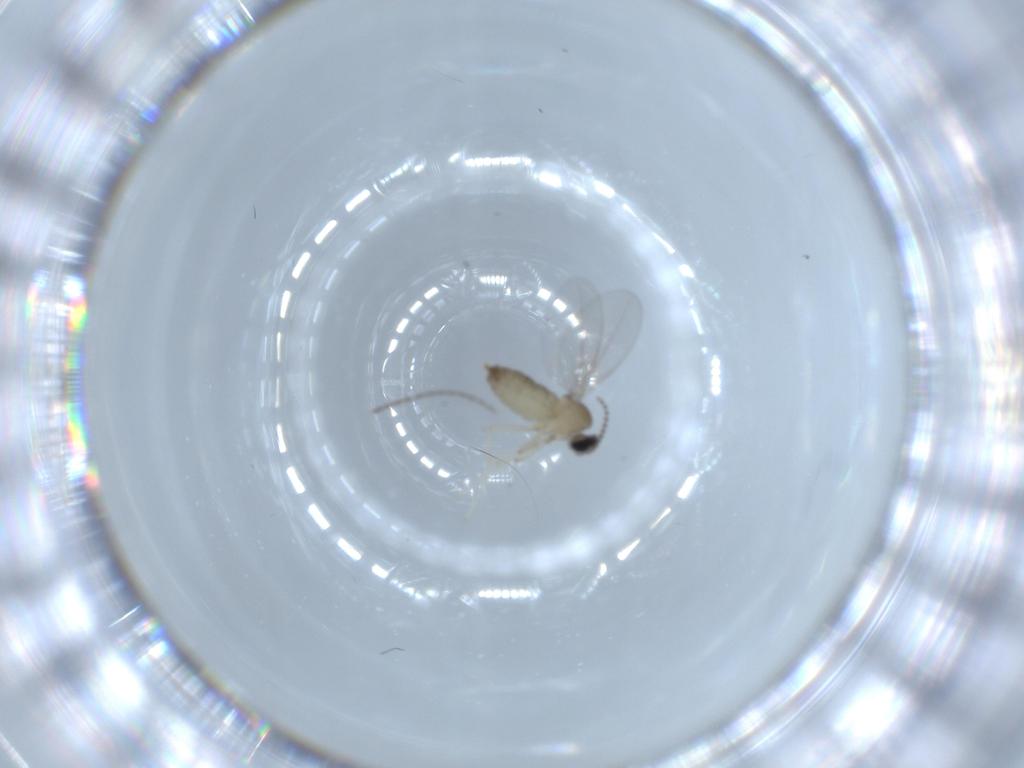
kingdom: Animalia
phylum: Arthropoda
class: Insecta
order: Diptera
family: Cecidomyiidae
